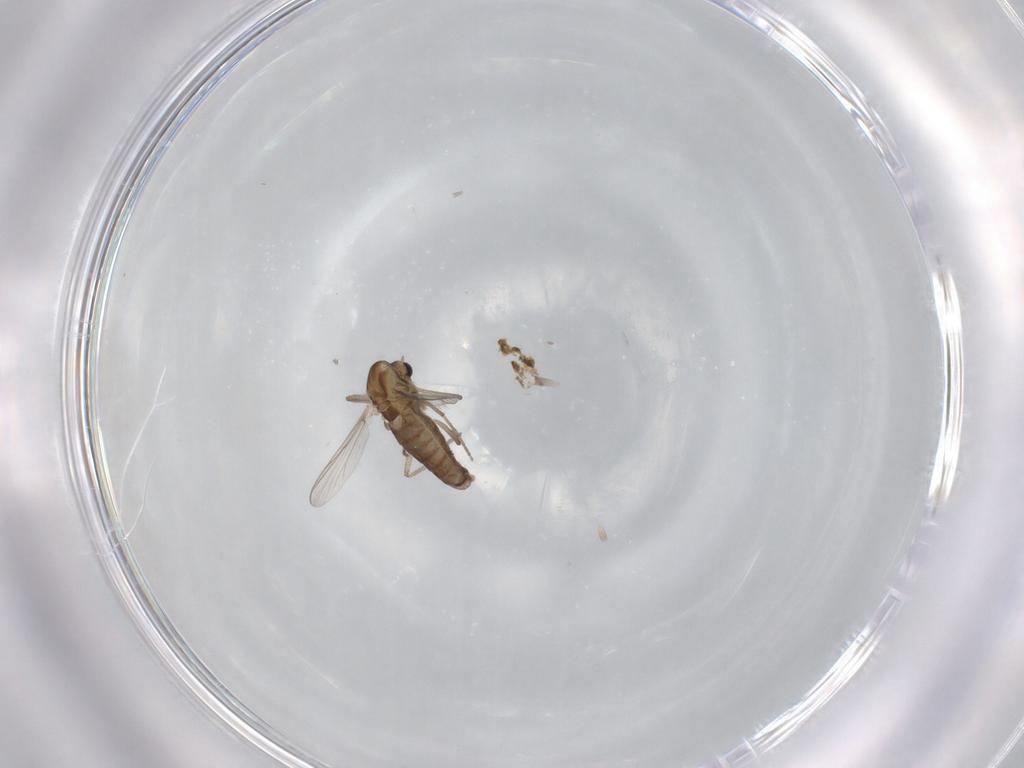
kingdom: Animalia
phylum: Arthropoda
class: Insecta
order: Diptera
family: Chironomidae
